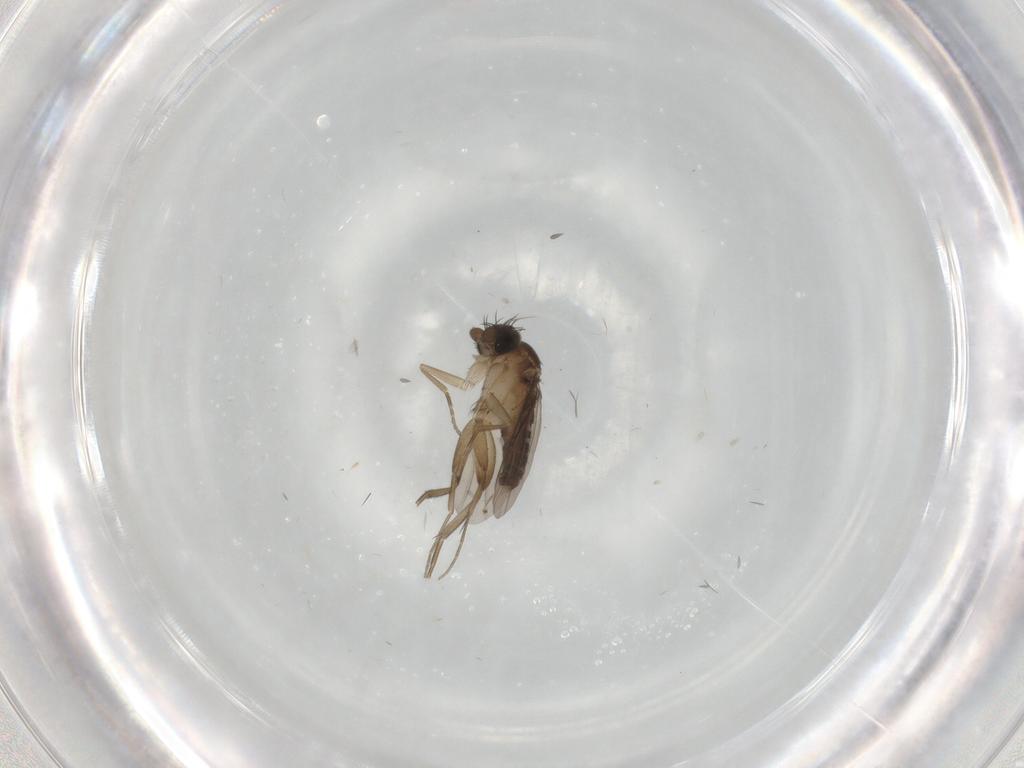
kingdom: Animalia
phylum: Arthropoda
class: Insecta
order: Diptera
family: Phoridae
